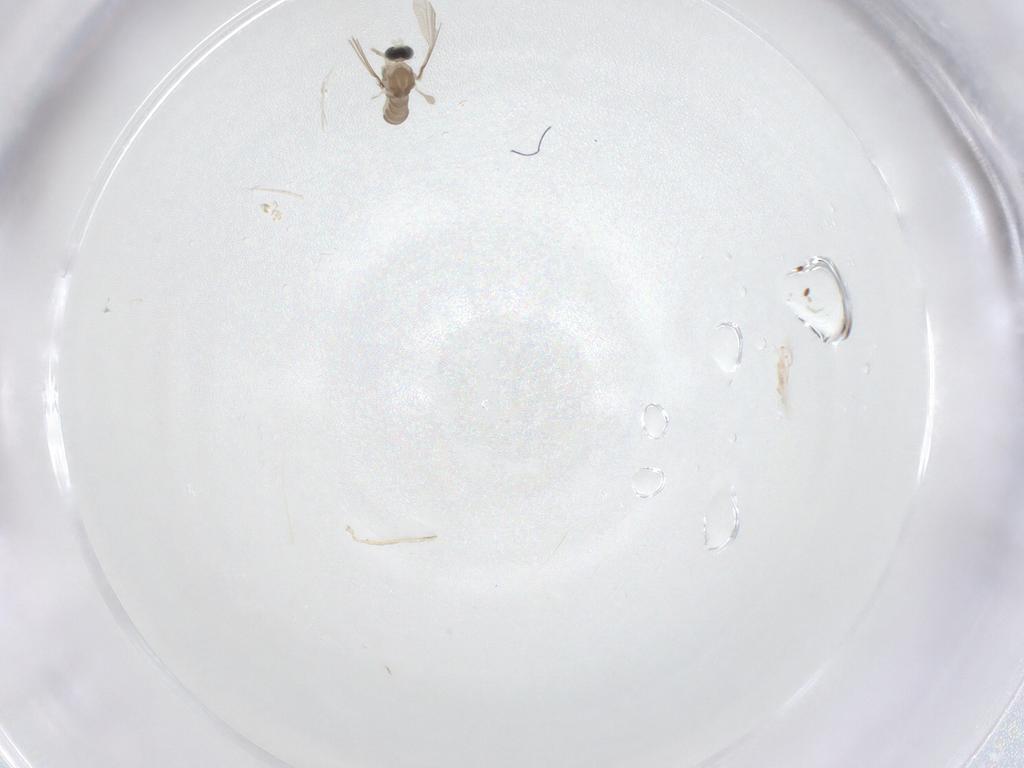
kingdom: Animalia
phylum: Arthropoda
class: Insecta
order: Diptera
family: Cecidomyiidae
